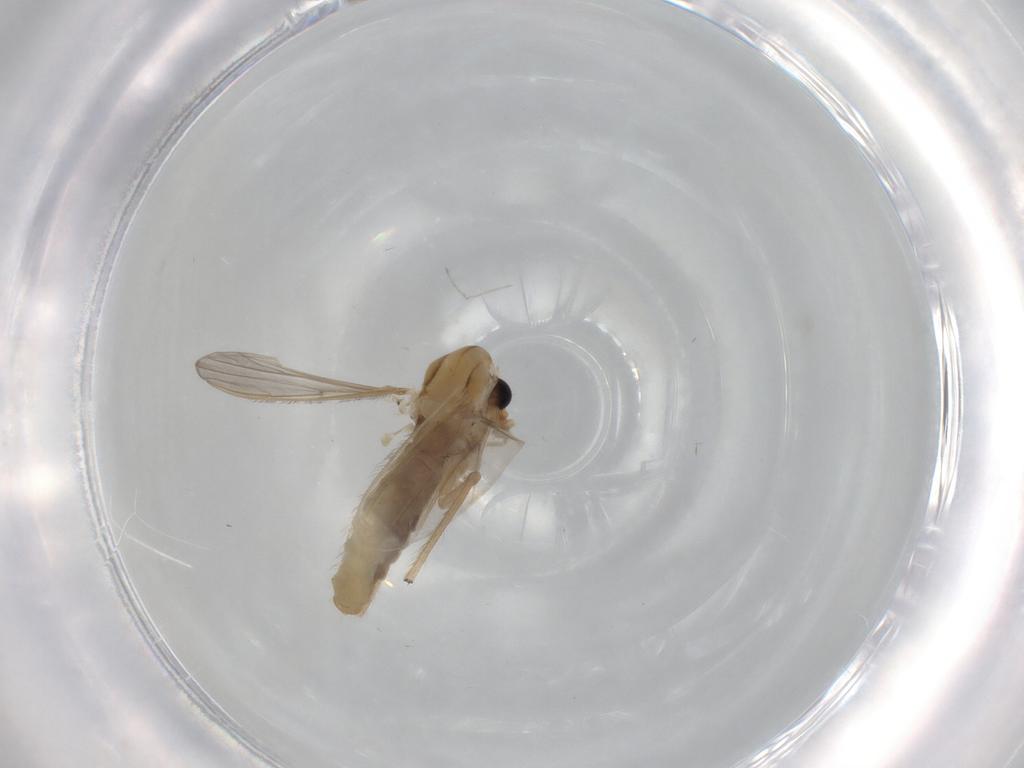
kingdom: Animalia
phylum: Arthropoda
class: Insecta
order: Diptera
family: Chironomidae
